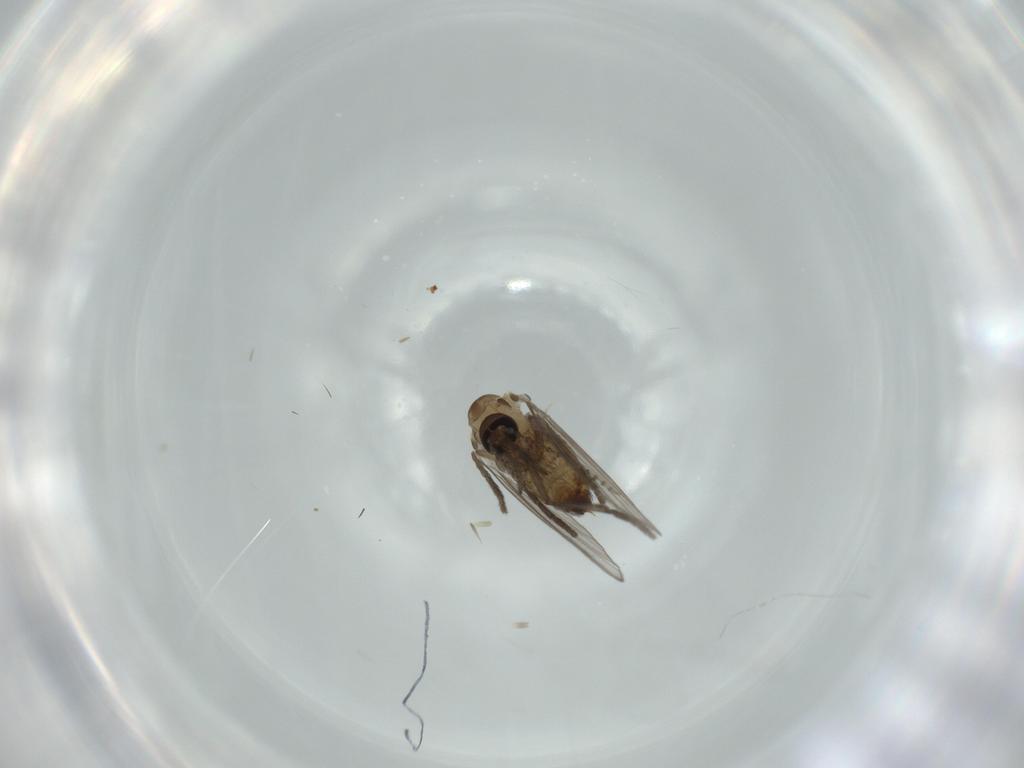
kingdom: Animalia
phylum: Arthropoda
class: Insecta
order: Diptera
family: Psychodidae
